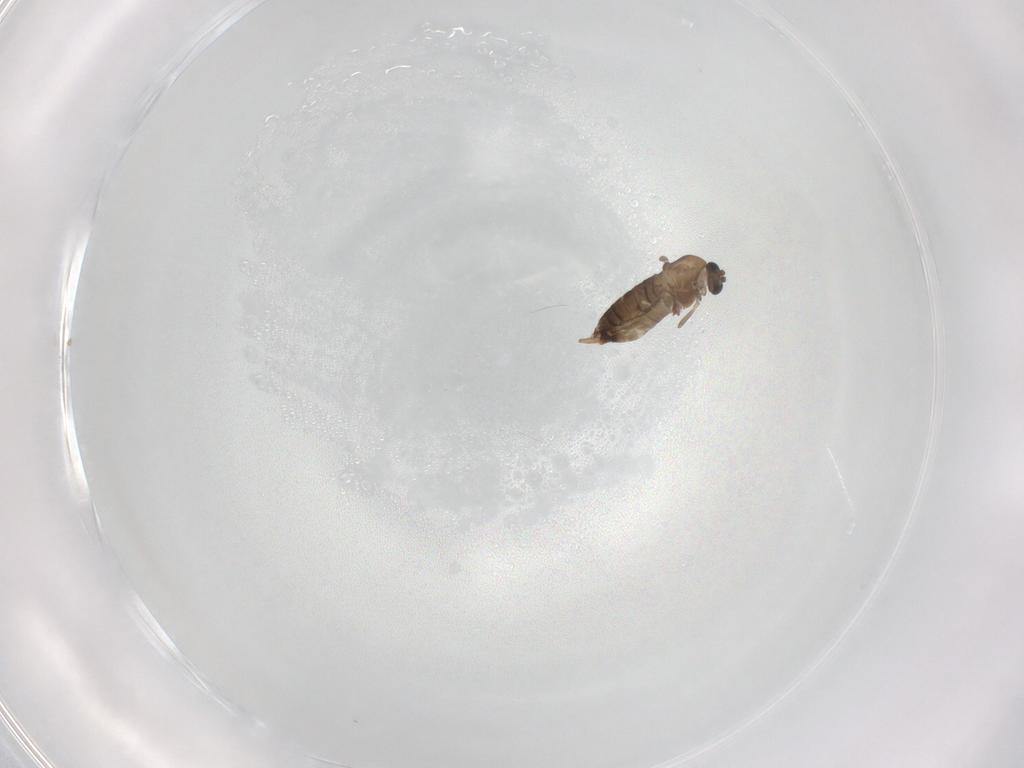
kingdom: Animalia
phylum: Arthropoda
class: Insecta
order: Diptera
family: Chironomidae
